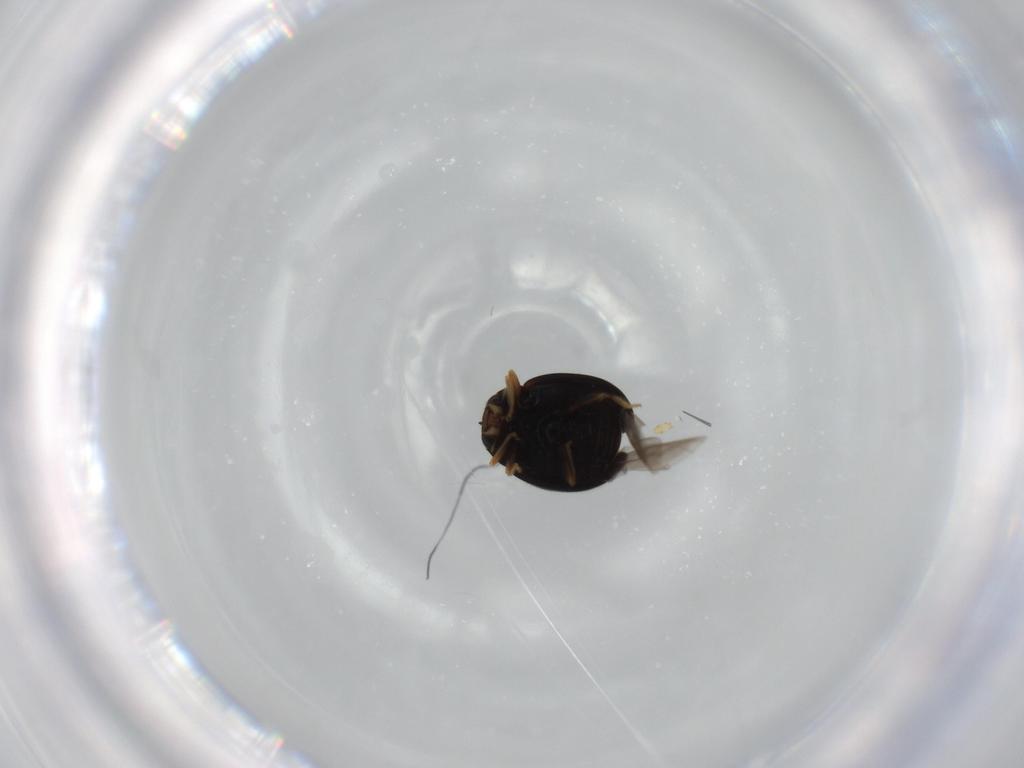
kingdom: Animalia
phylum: Arthropoda
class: Insecta
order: Coleoptera
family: Coccinellidae
